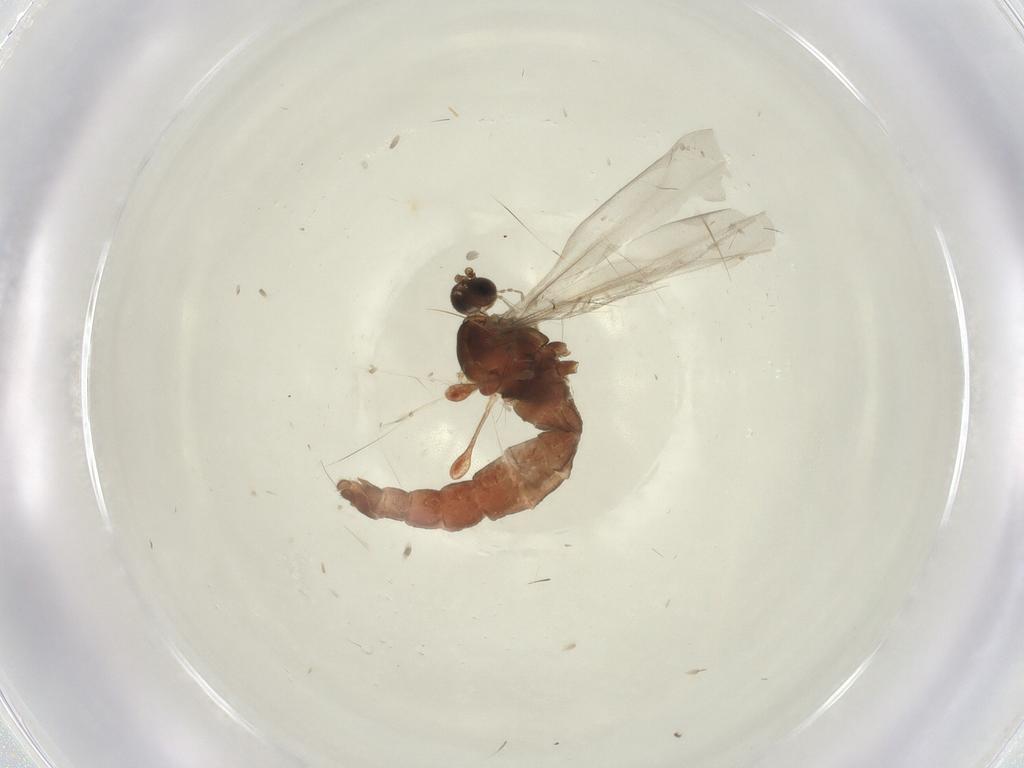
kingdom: Animalia
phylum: Arthropoda
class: Insecta
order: Diptera
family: Cecidomyiidae
